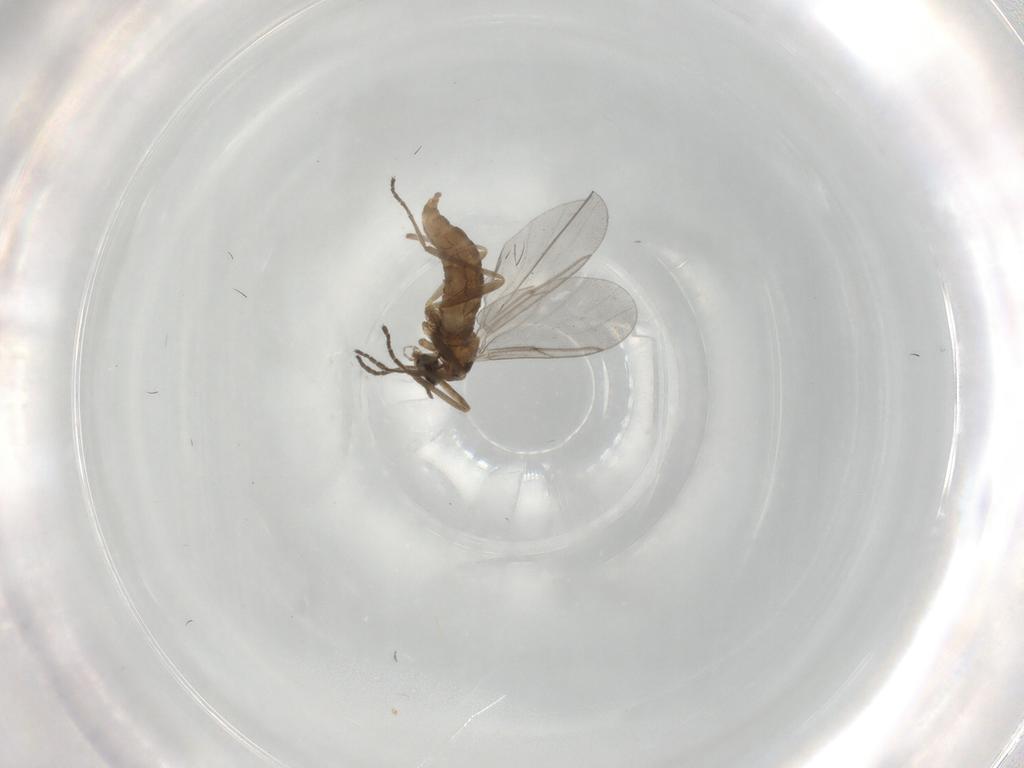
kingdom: Animalia
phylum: Arthropoda
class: Insecta
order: Diptera
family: Cecidomyiidae
